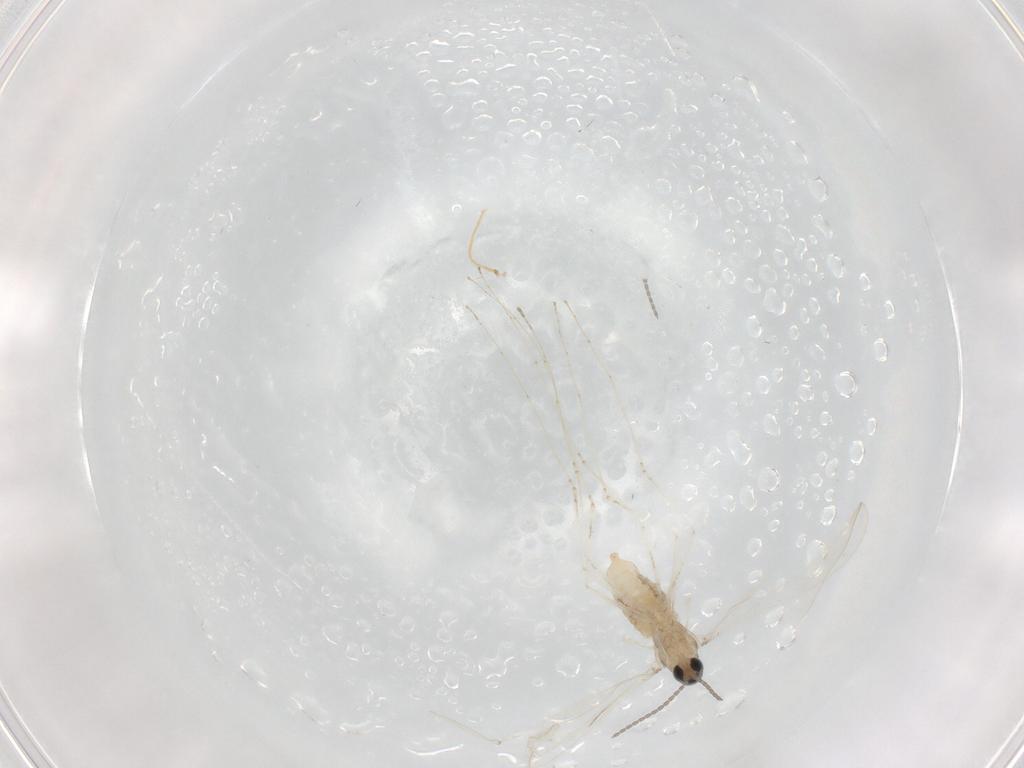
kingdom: Animalia
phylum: Arthropoda
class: Insecta
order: Diptera
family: Cecidomyiidae
